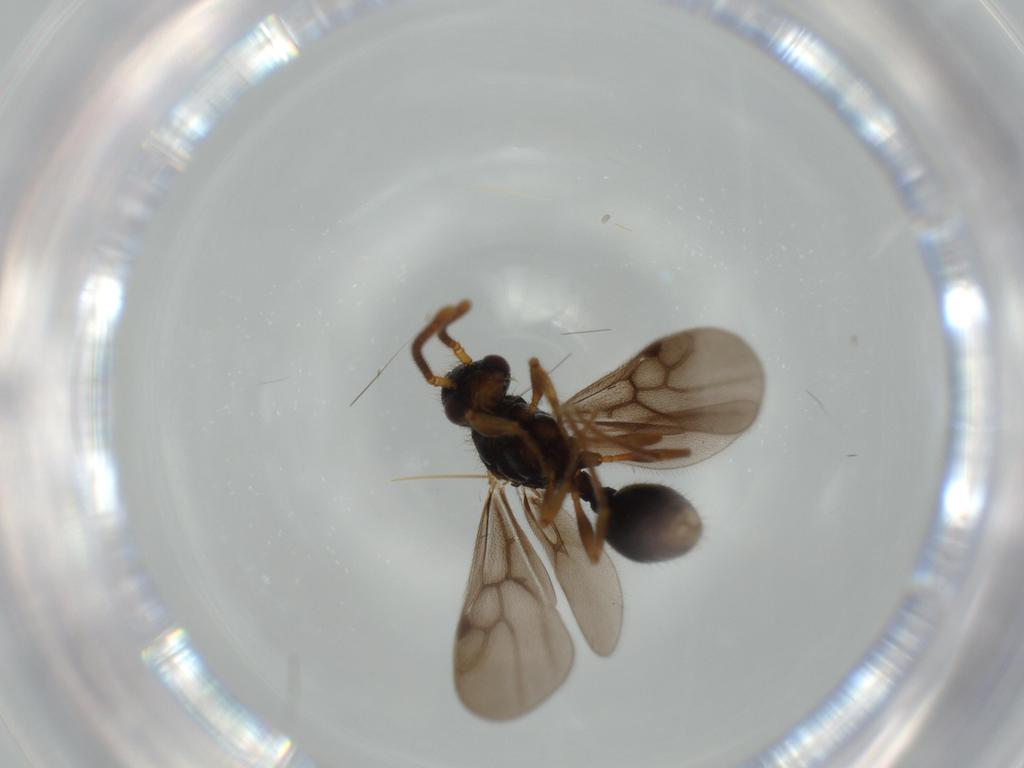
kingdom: Animalia
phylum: Arthropoda
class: Insecta
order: Hymenoptera
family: Formicidae
